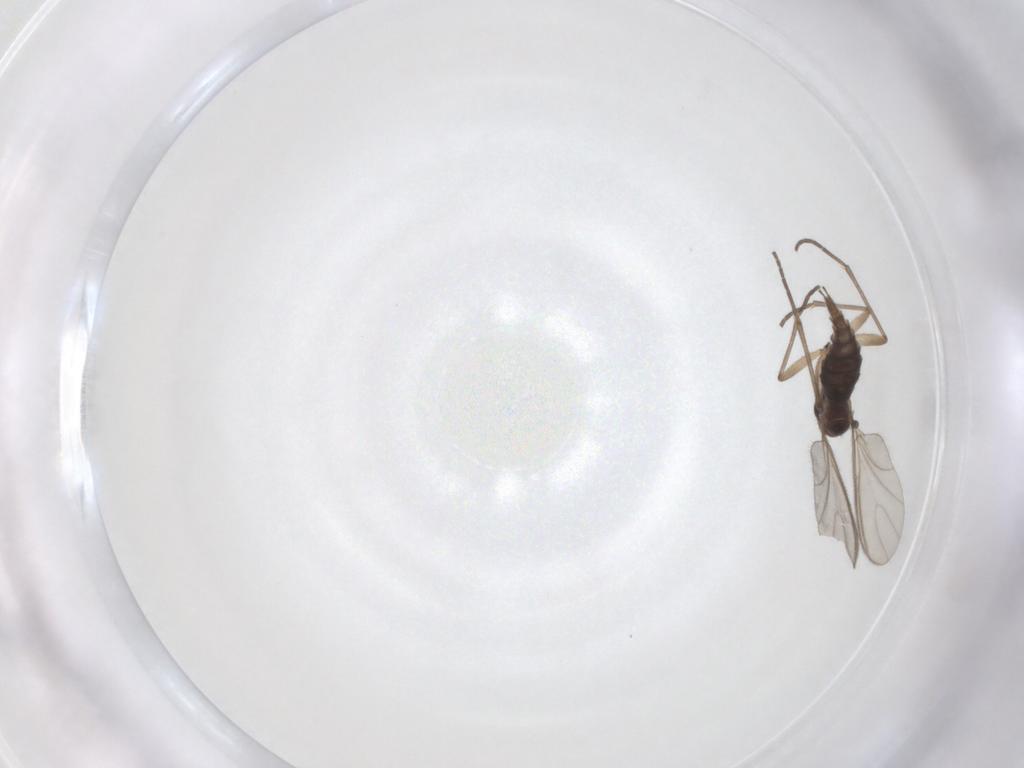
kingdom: Animalia
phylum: Arthropoda
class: Insecta
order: Diptera
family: Sciaridae
